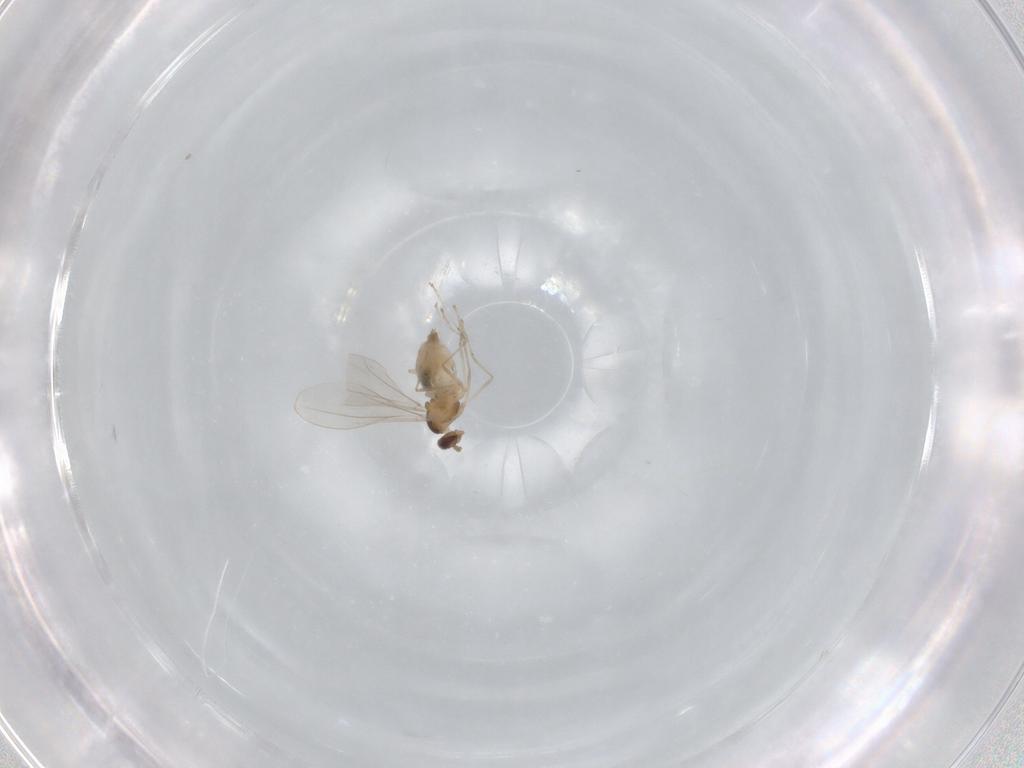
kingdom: Animalia
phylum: Arthropoda
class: Insecta
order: Diptera
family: Cecidomyiidae
